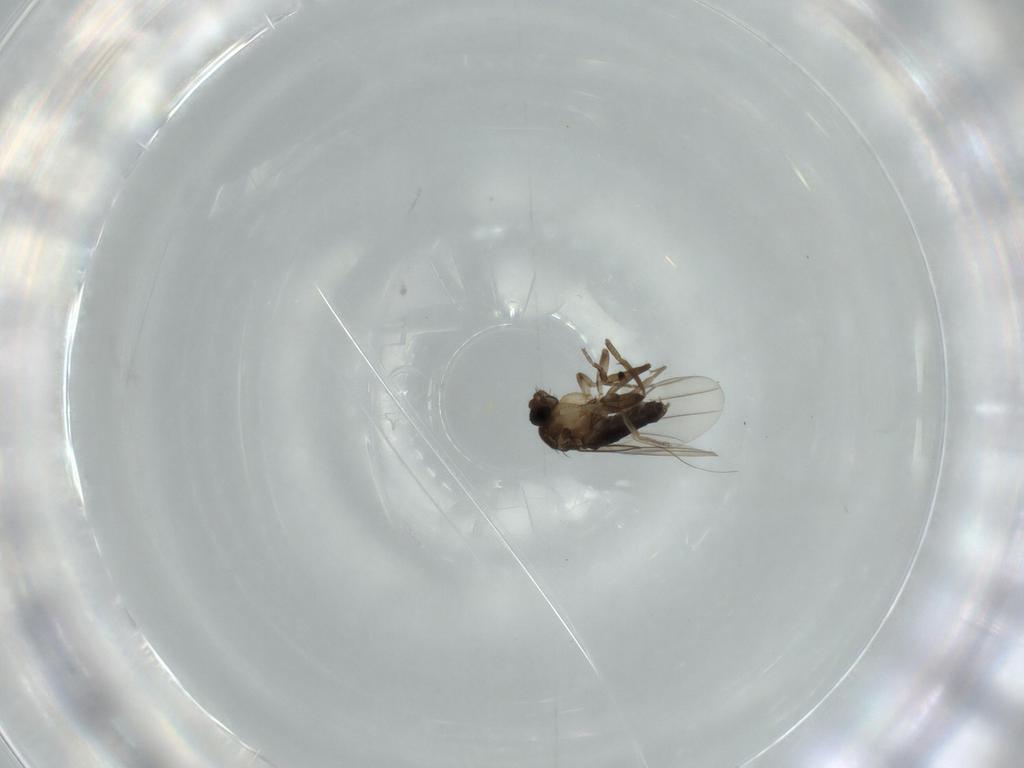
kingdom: Animalia
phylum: Arthropoda
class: Insecta
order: Diptera
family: Phoridae
